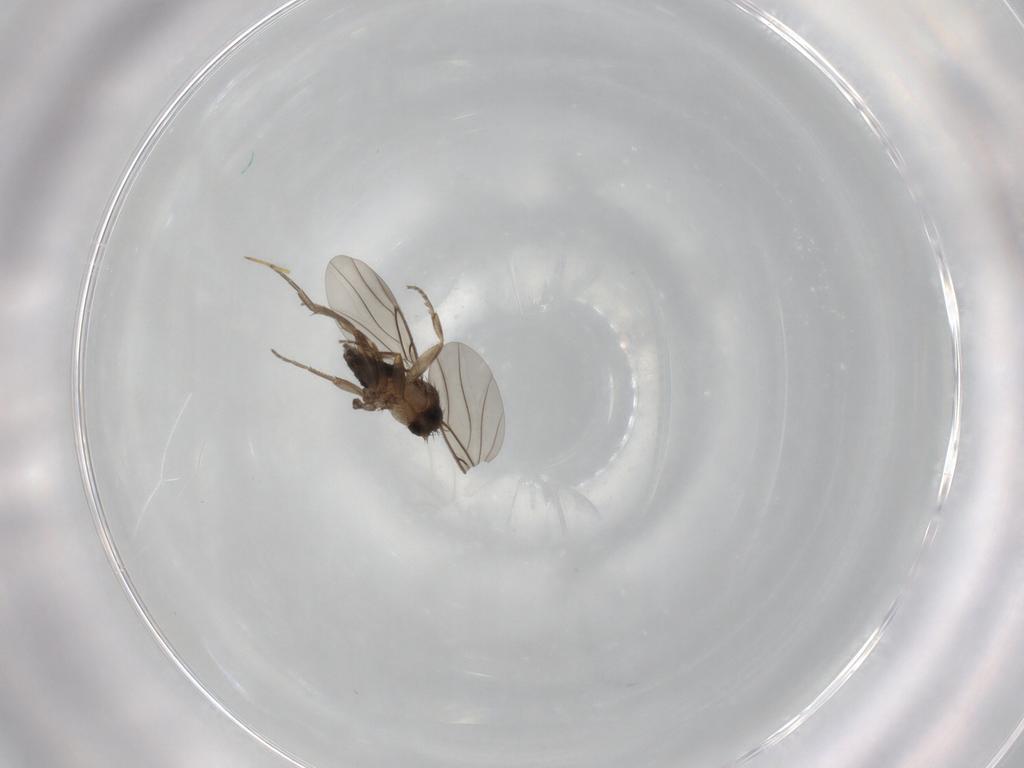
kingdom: Animalia
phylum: Arthropoda
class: Insecta
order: Diptera
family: Phoridae
